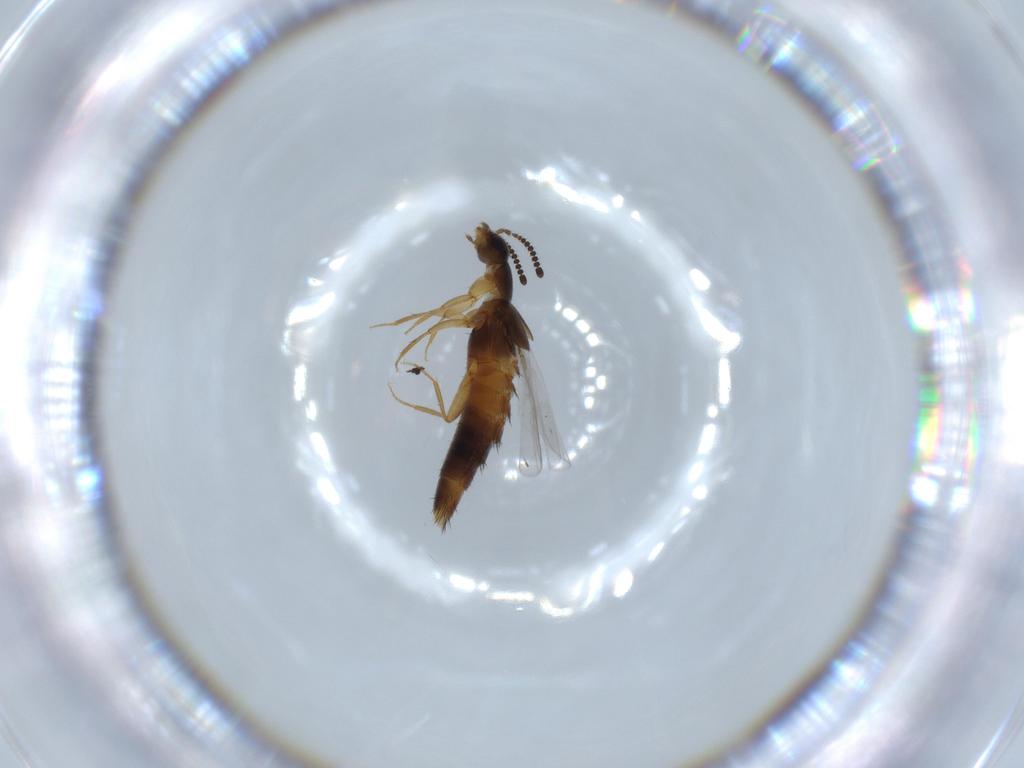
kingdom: Animalia
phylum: Arthropoda
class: Insecta
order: Coleoptera
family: Staphylinidae
